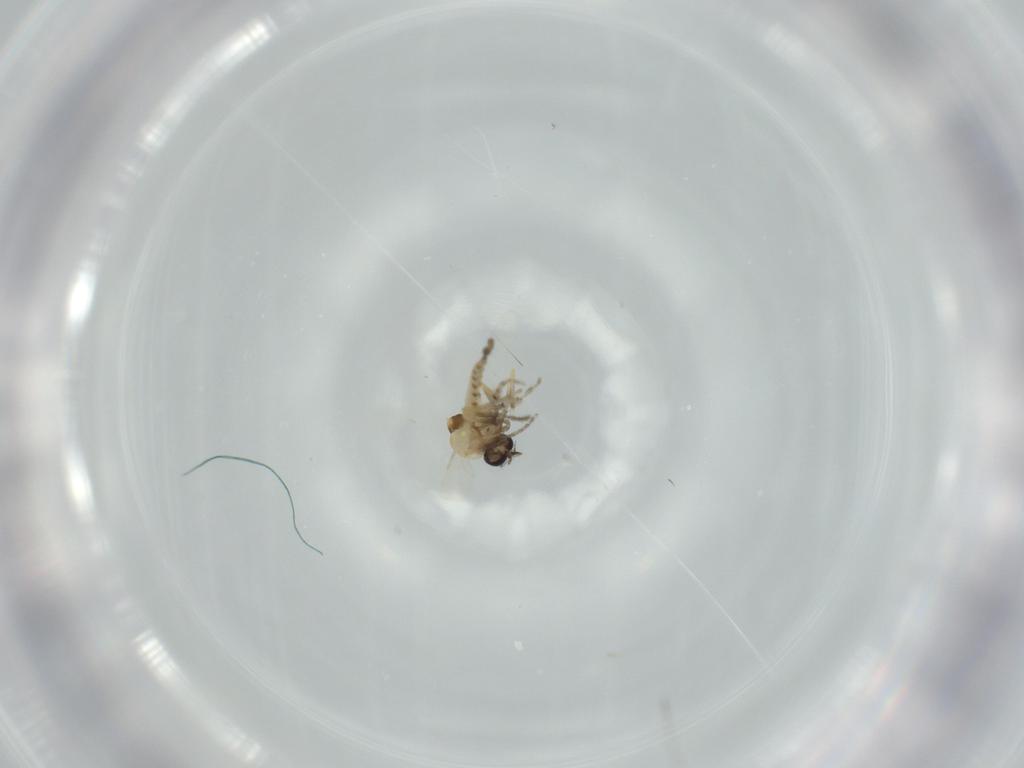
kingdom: Animalia
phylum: Arthropoda
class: Insecta
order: Diptera
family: Ceratopogonidae
